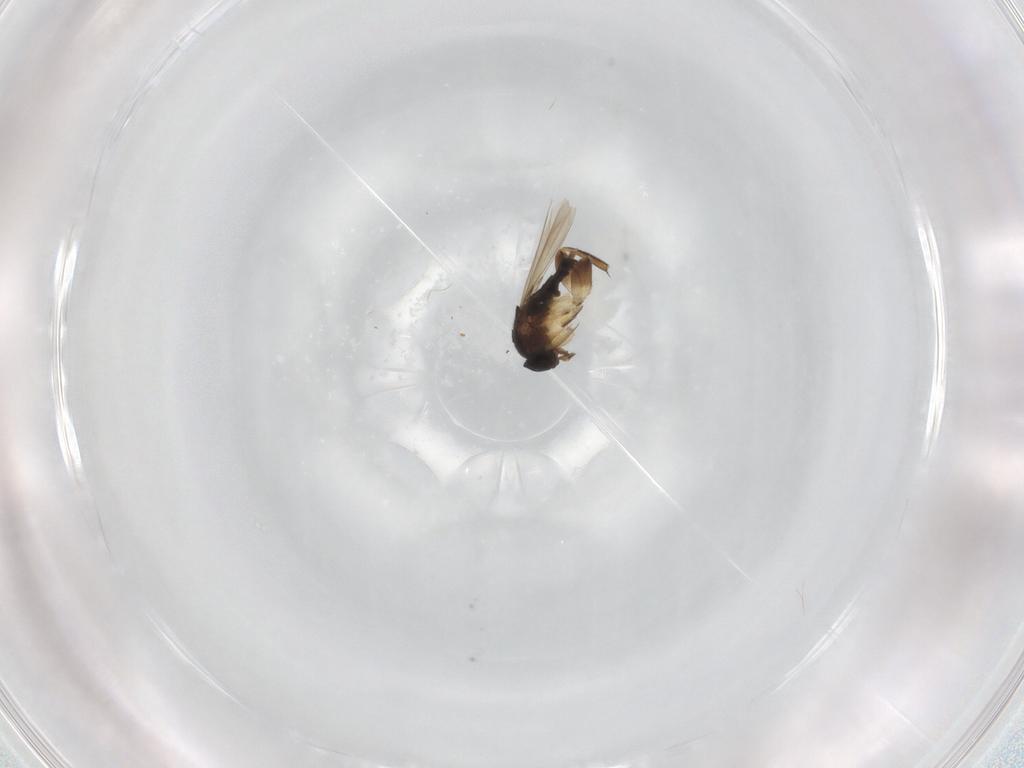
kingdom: Animalia
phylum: Arthropoda
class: Insecta
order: Diptera
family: Phoridae
